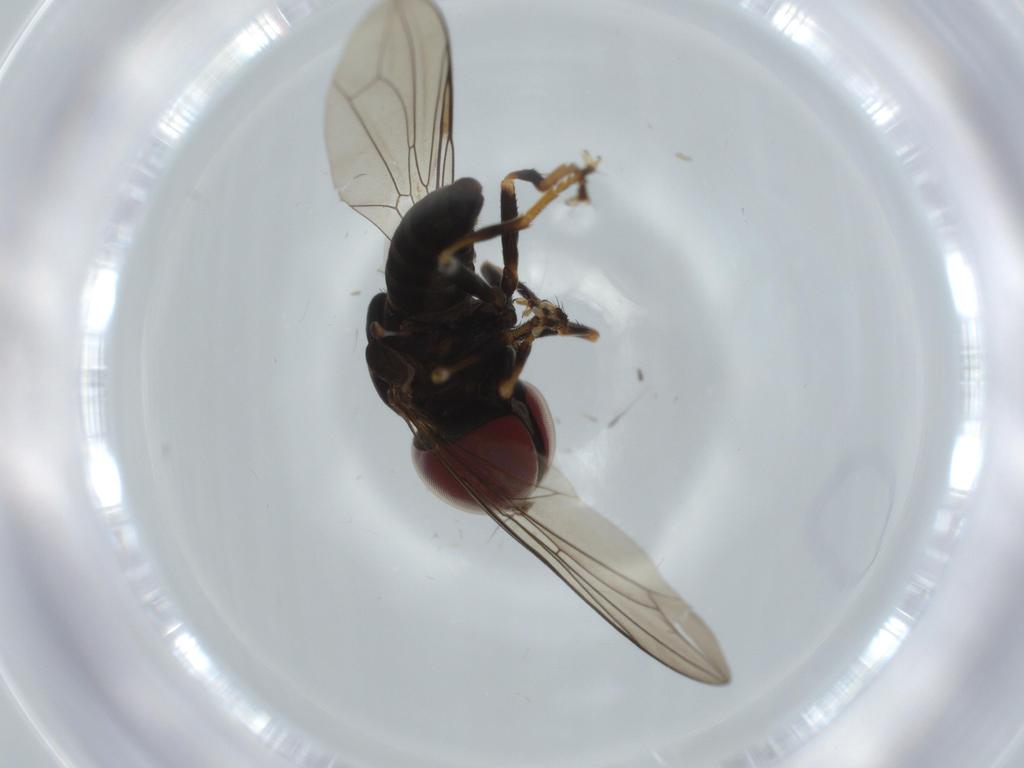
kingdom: Animalia
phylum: Arthropoda
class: Insecta
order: Diptera
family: Pipunculidae
